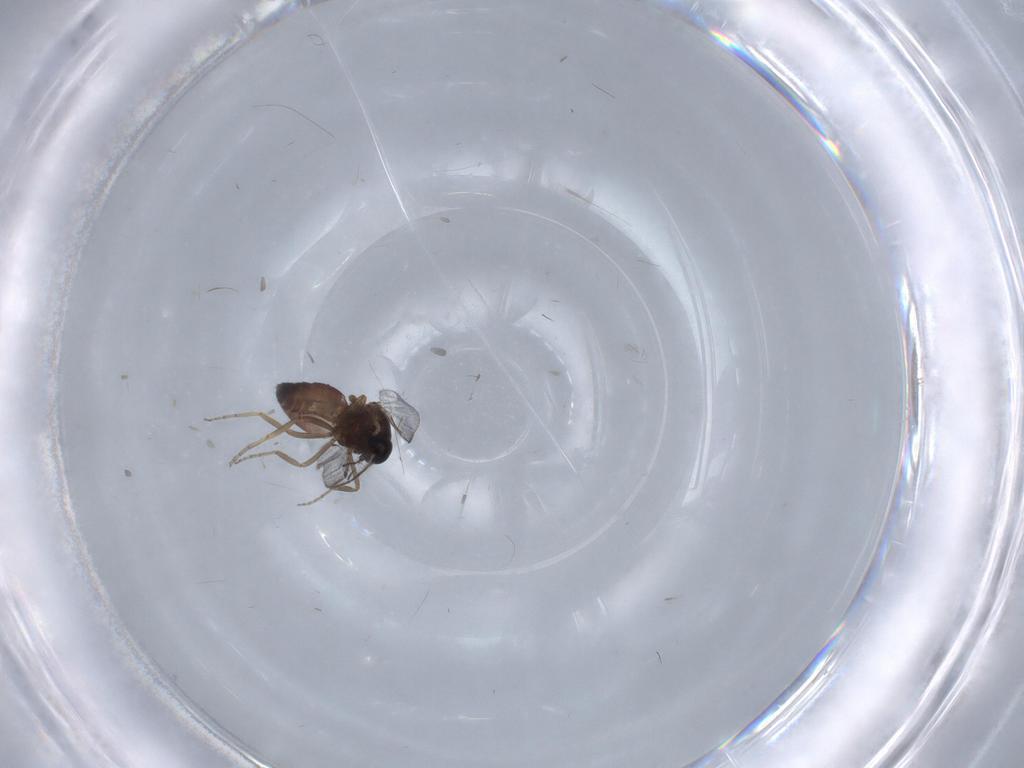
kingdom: Animalia
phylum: Arthropoda
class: Insecta
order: Diptera
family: Ceratopogonidae
